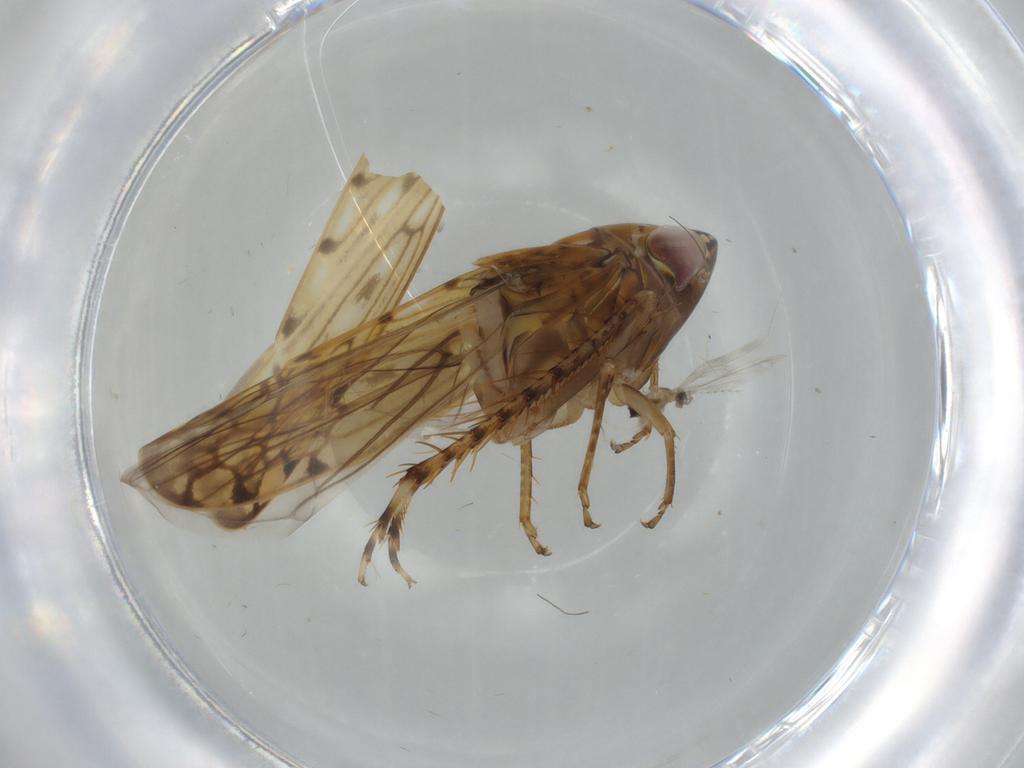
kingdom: Animalia
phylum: Arthropoda
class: Insecta
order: Hemiptera
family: Cicadellidae
